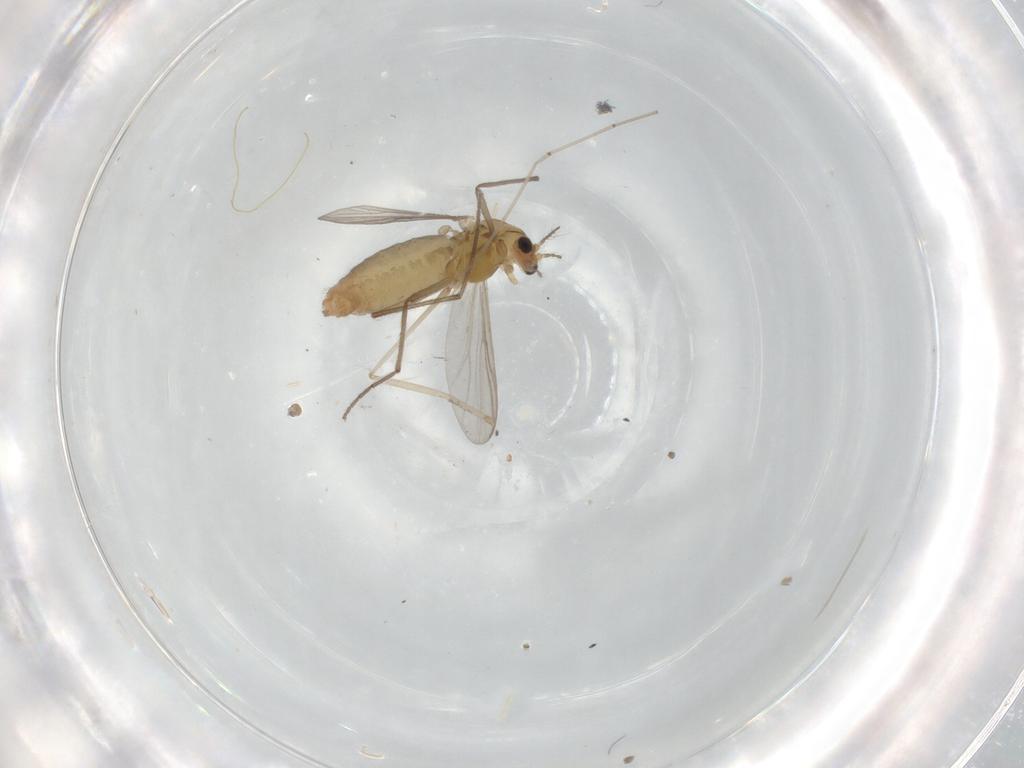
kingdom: Animalia
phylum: Arthropoda
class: Insecta
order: Diptera
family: Chironomidae
